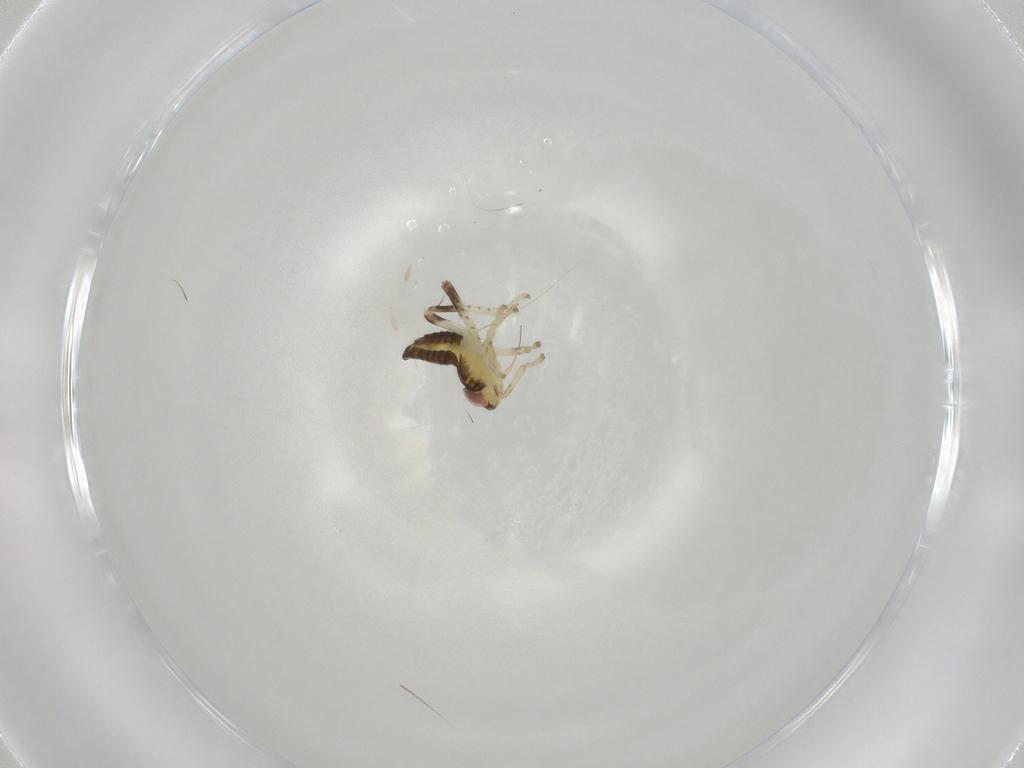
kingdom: Animalia
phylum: Arthropoda
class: Insecta
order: Hemiptera
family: Cicadellidae
